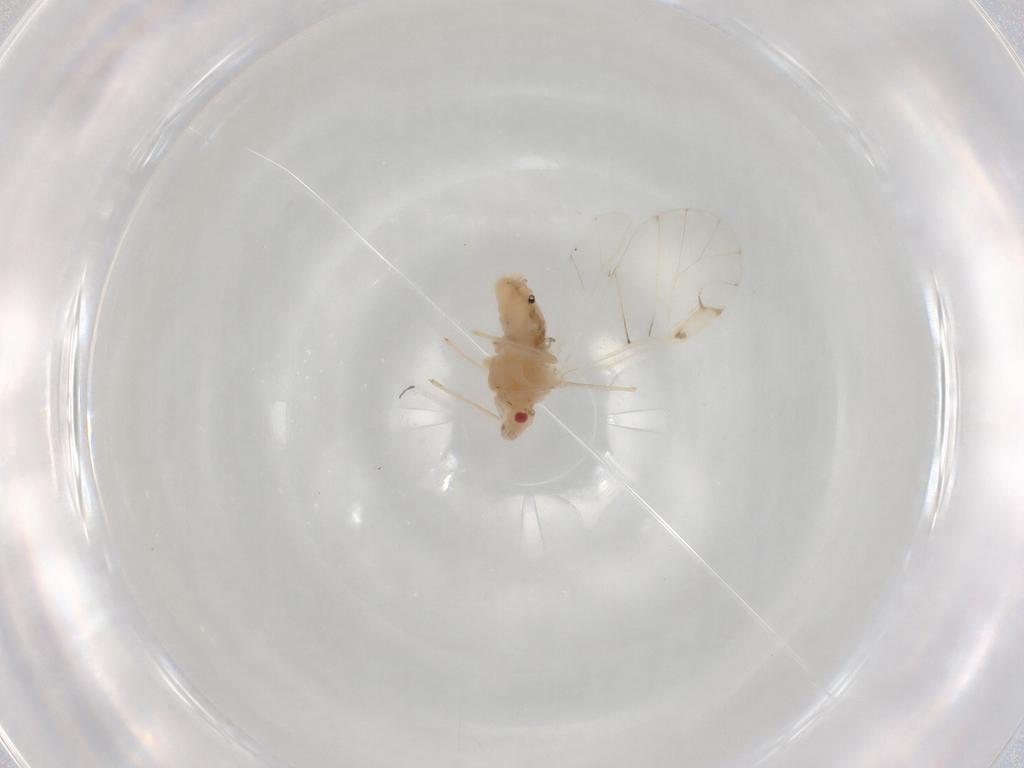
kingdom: Animalia
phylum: Arthropoda
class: Insecta
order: Hemiptera
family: Aphididae
